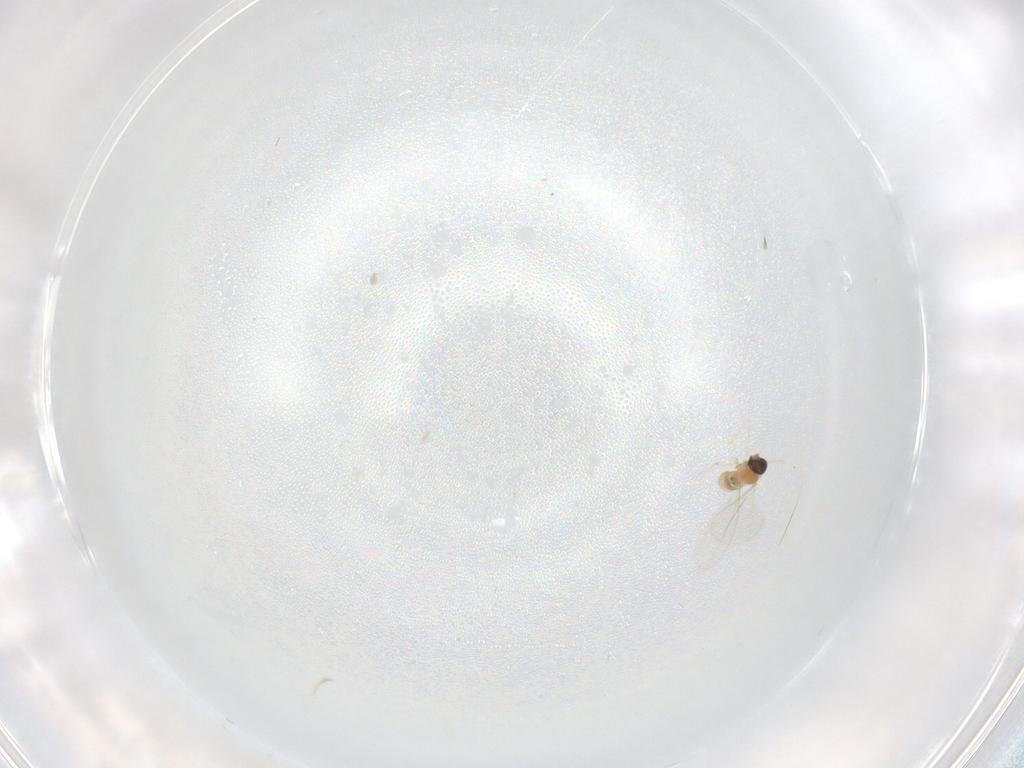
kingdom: Animalia
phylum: Arthropoda
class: Insecta
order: Diptera
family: Cecidomyiidae
